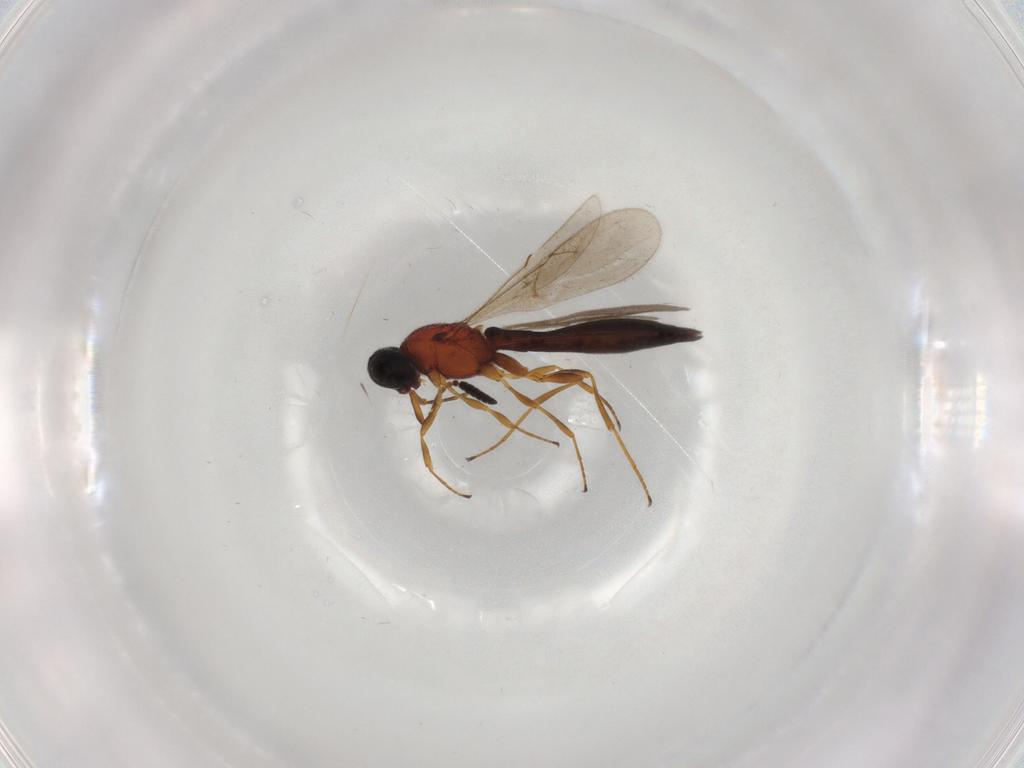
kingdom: Animalia
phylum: Arthropoda
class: Insecta
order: Hymenoptera
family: Scelionidae
